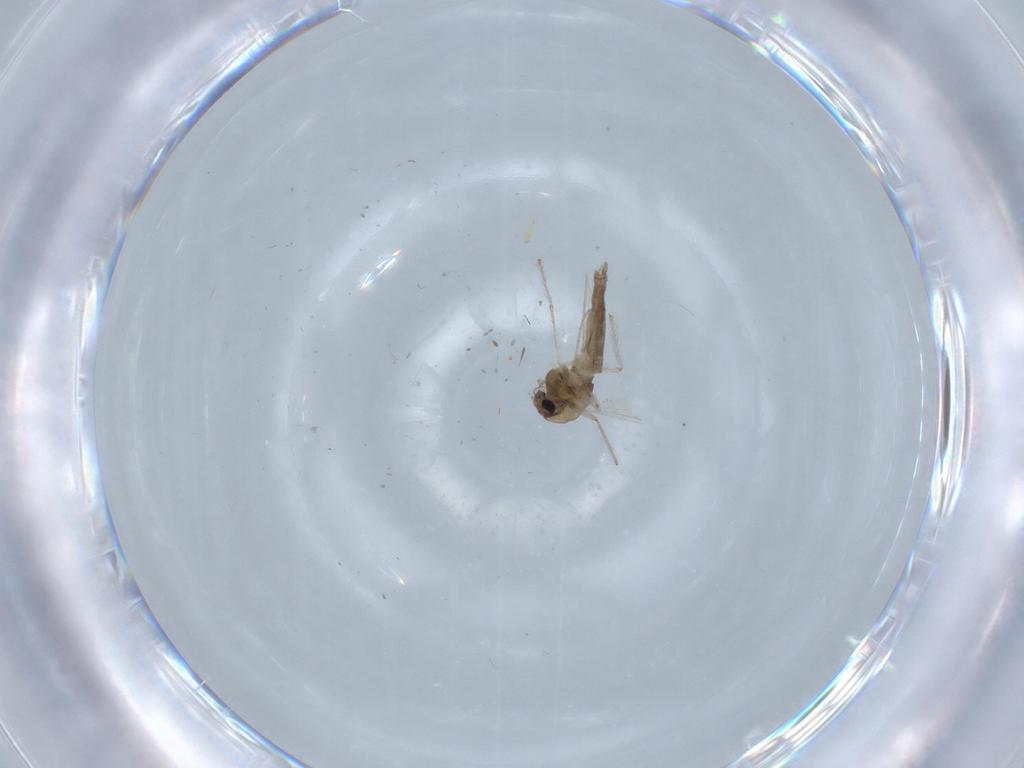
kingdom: Animalia
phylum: Arthropoda
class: Insecta
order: Diptera
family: Chironomidae
